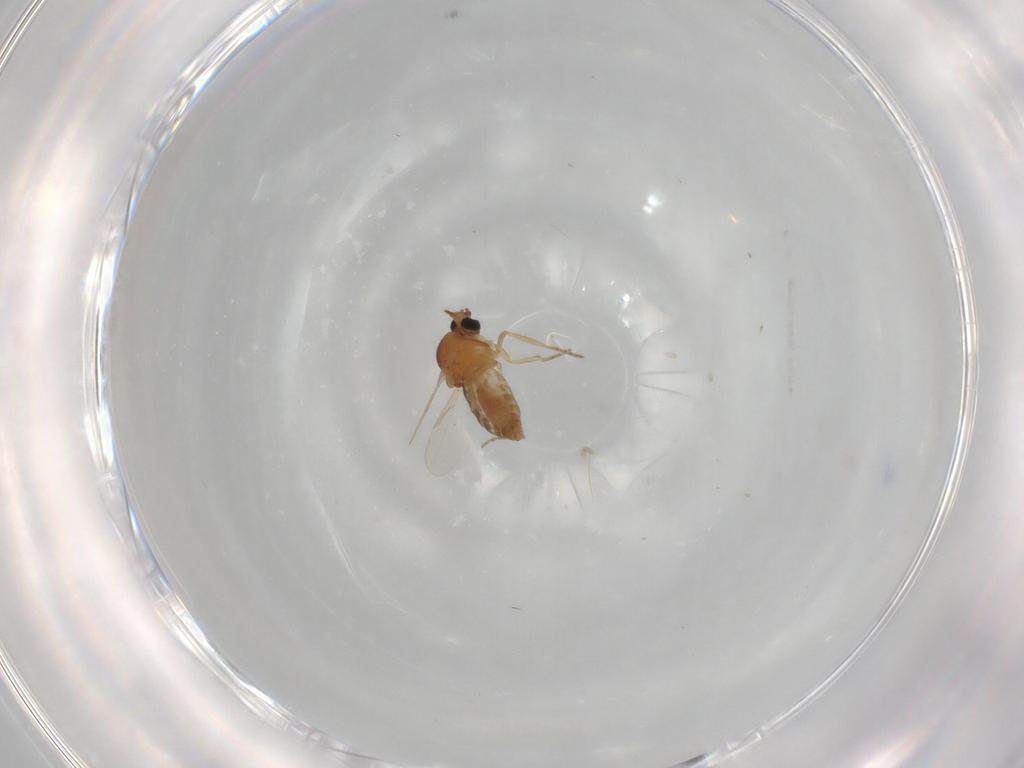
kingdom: Animalia
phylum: Arthropoda
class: Insecta
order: Diptera
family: Ceratopogonidae
